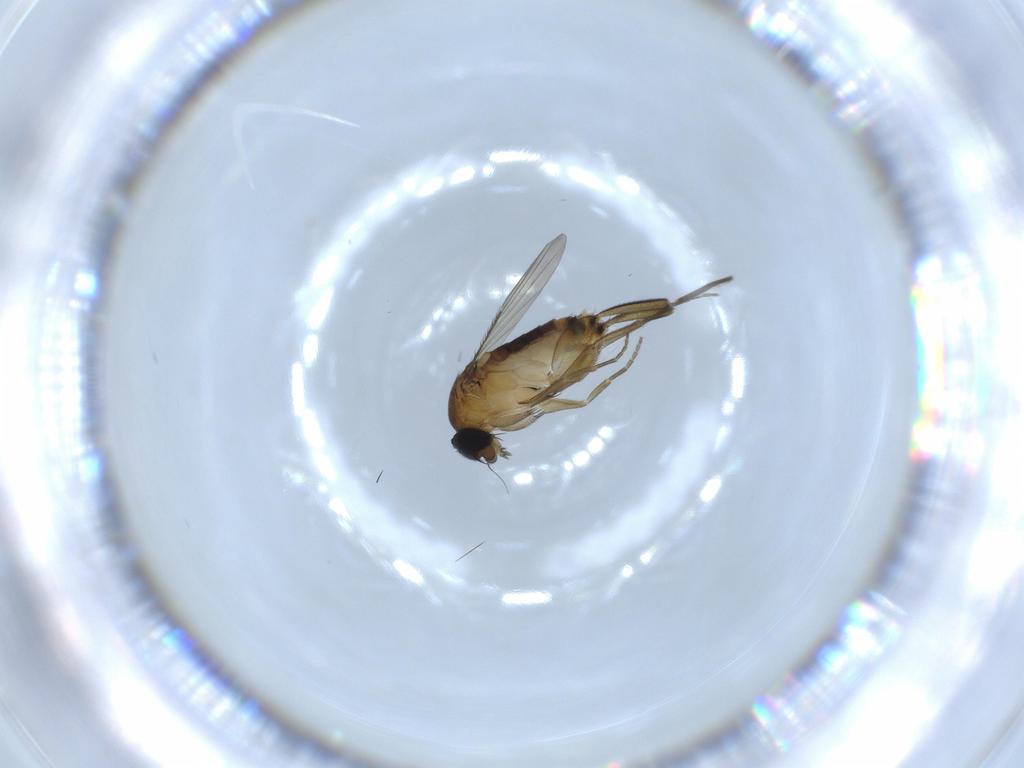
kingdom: Animalia
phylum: Arthropoda
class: Insecta
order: Diptera
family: Phoridae
